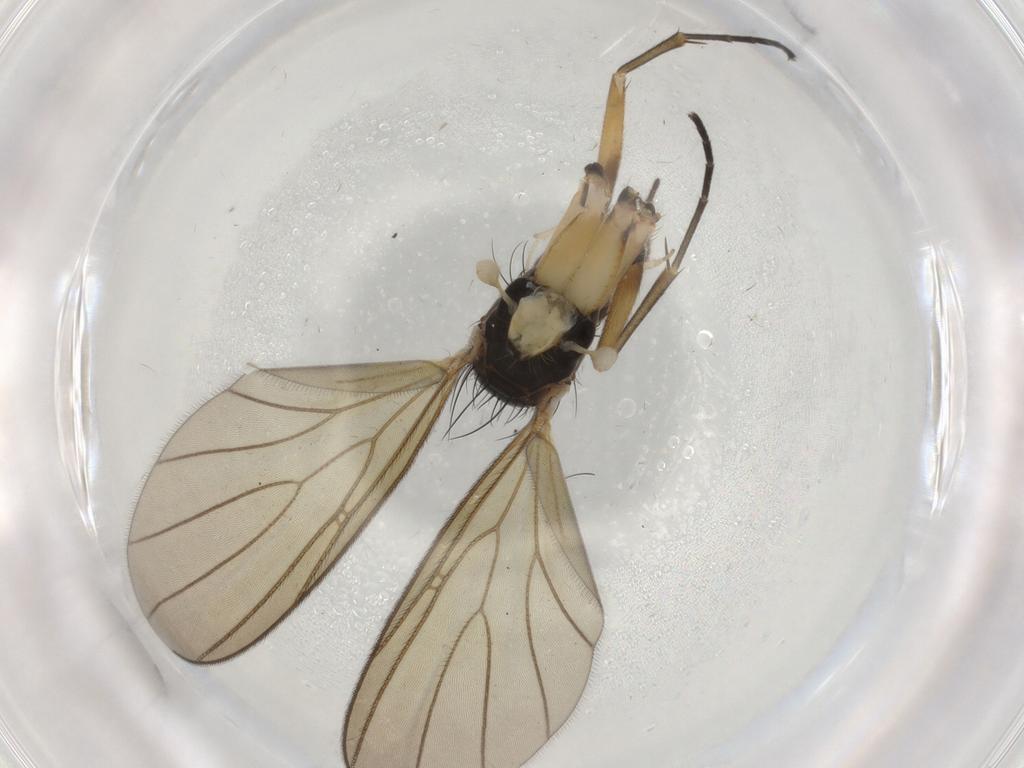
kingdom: Animalia
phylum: Arthropoda
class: Insecta
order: Diptera
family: Mycetophilidae
